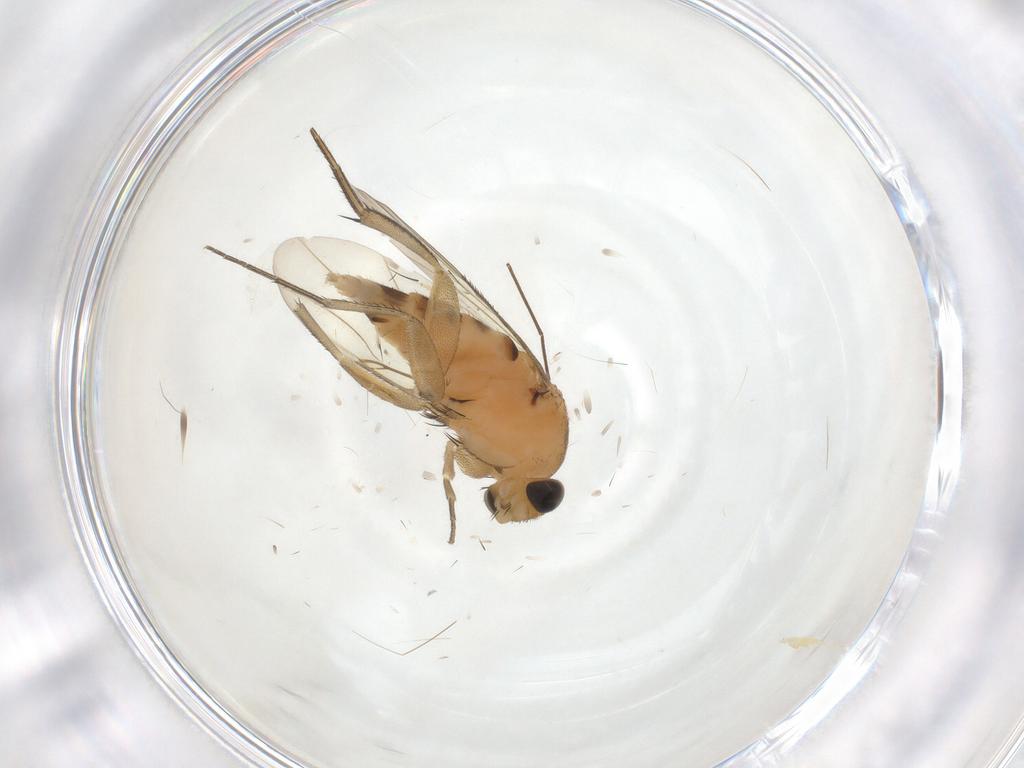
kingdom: Animalia
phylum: Arthropoda
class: Insecta
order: Diptera
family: Chironomidae
